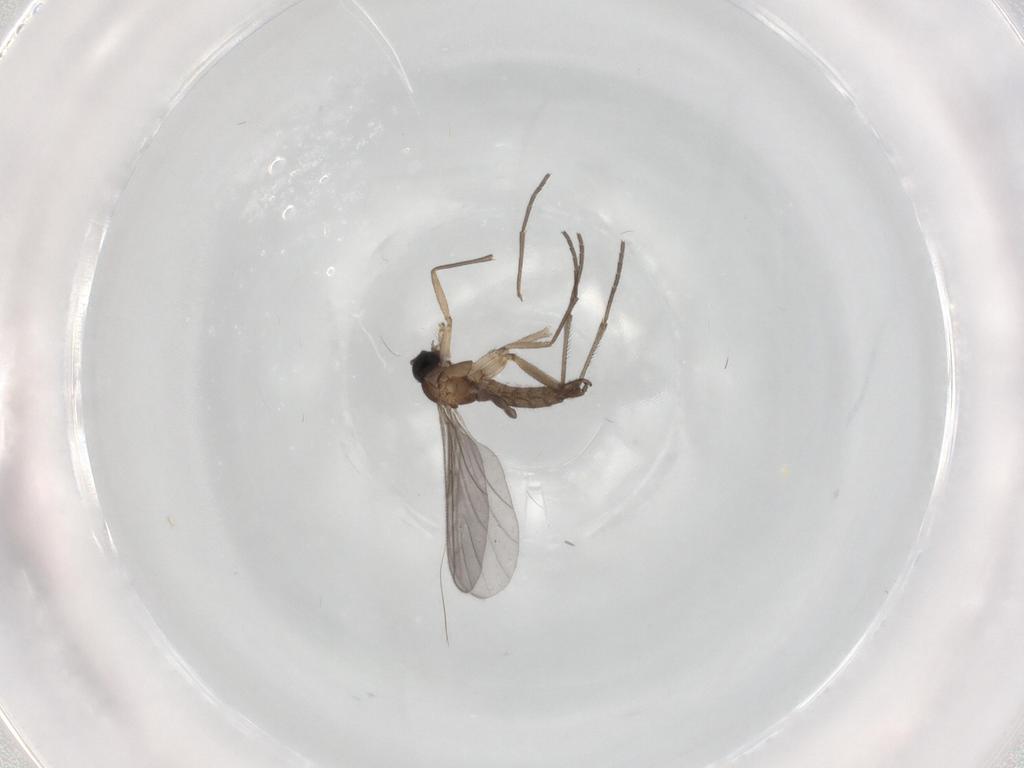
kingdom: Animalia
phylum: Arthropoda
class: Insecta
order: Diptera
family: Sciaridae
